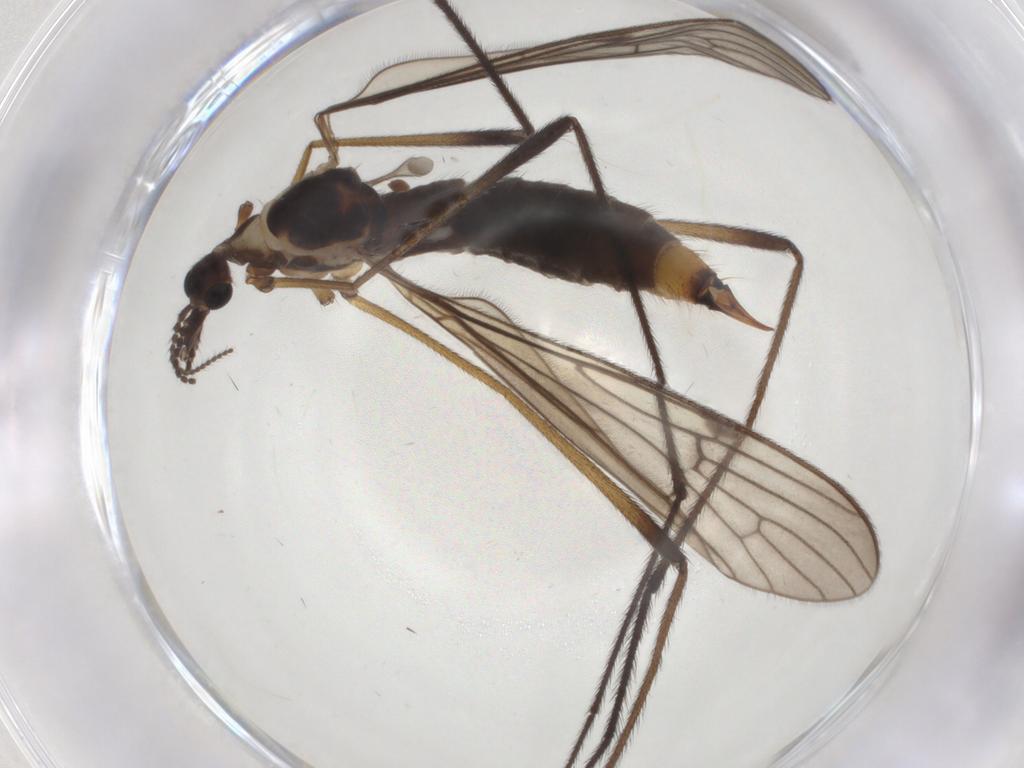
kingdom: Animalia
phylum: Arthropoda
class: Insecta
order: Diptera
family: Limoniidae
